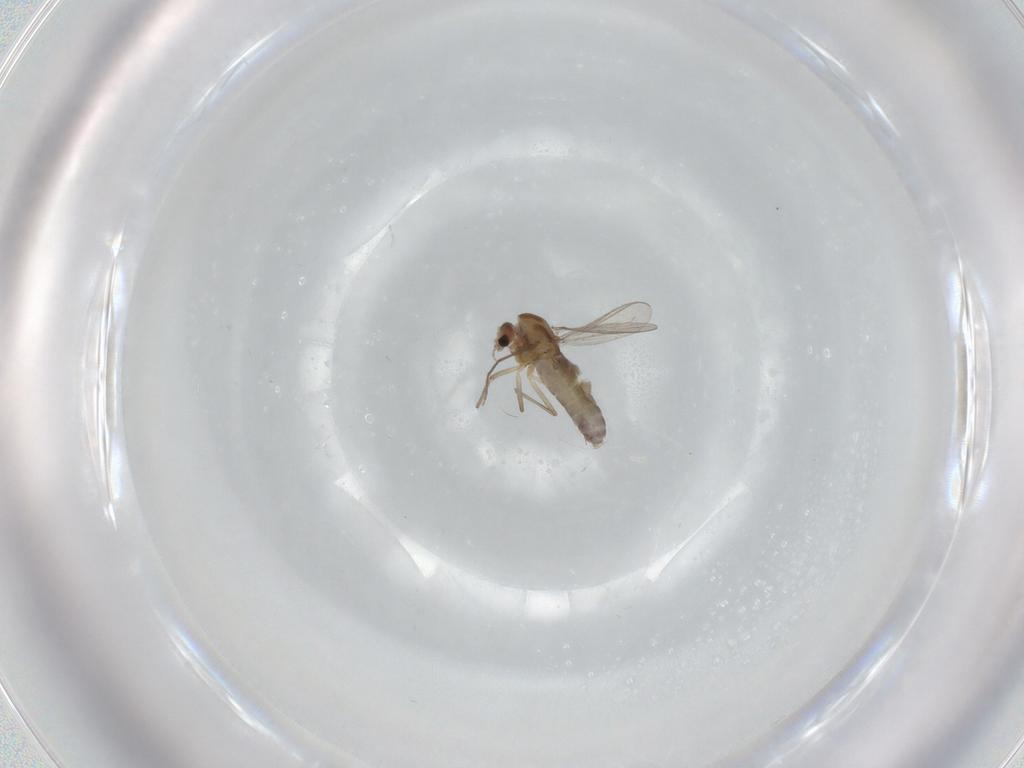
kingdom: Animalia
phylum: Arthropoda
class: Insecta
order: Diptera
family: Chironomidae
